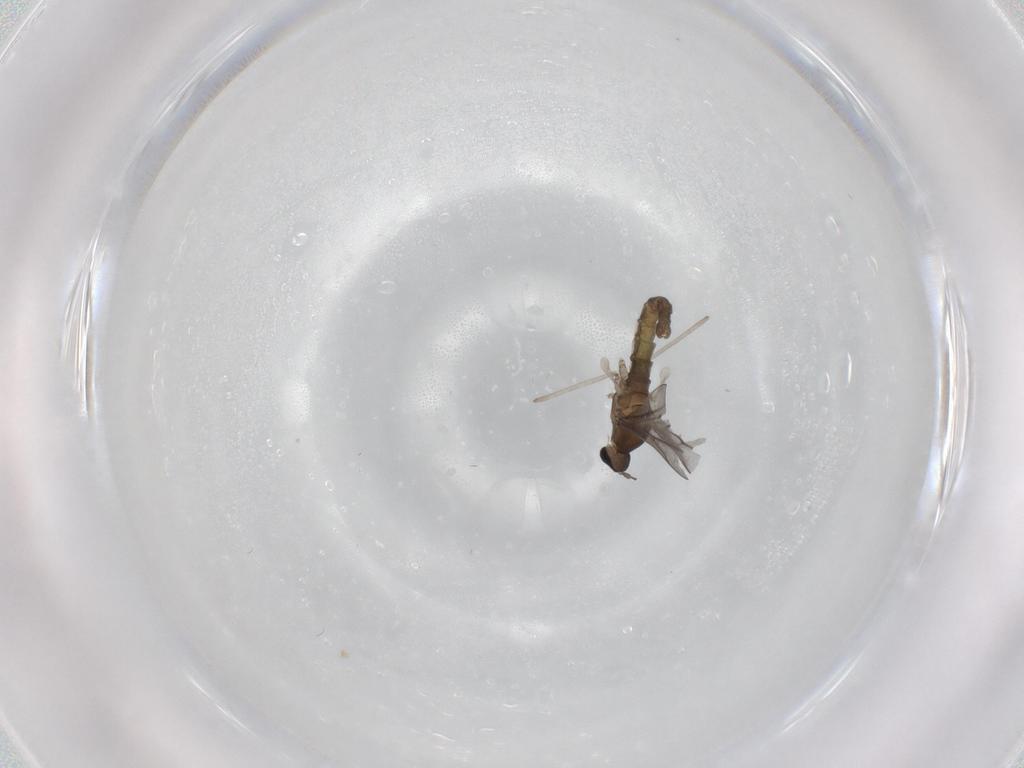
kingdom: Animalia
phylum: Arthropoda
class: Insecta
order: Diptera
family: Cecidomyiidae
